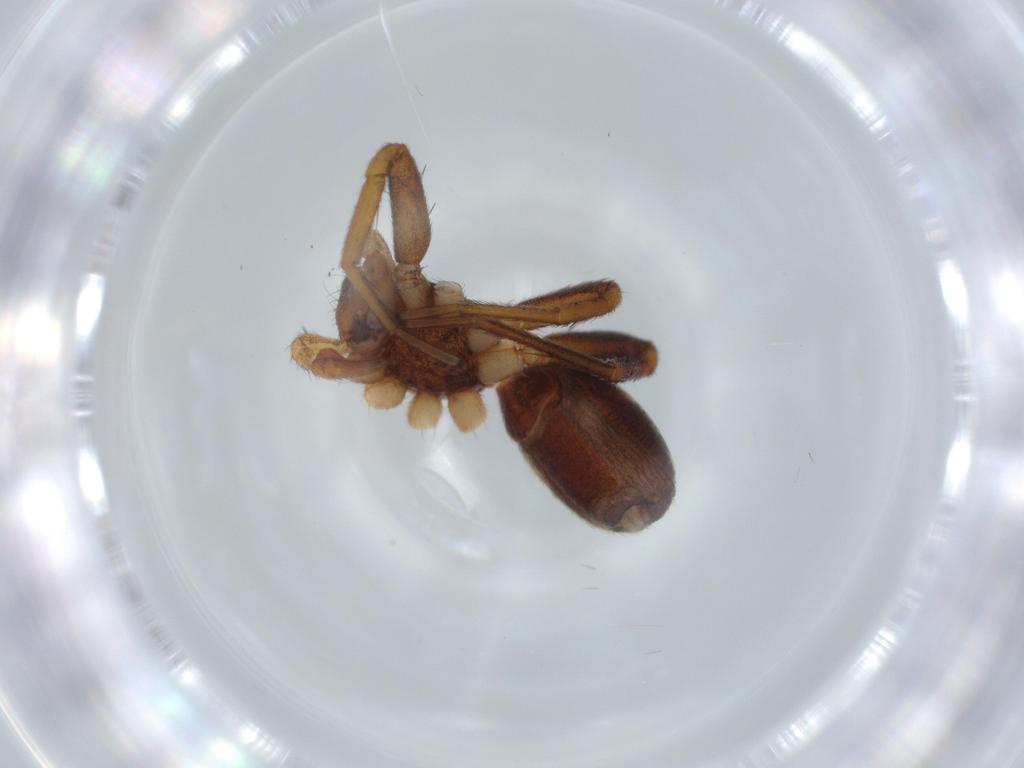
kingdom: Animalia
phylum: Arthropoda
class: Arachnida
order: Araneae
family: Corinnidae
